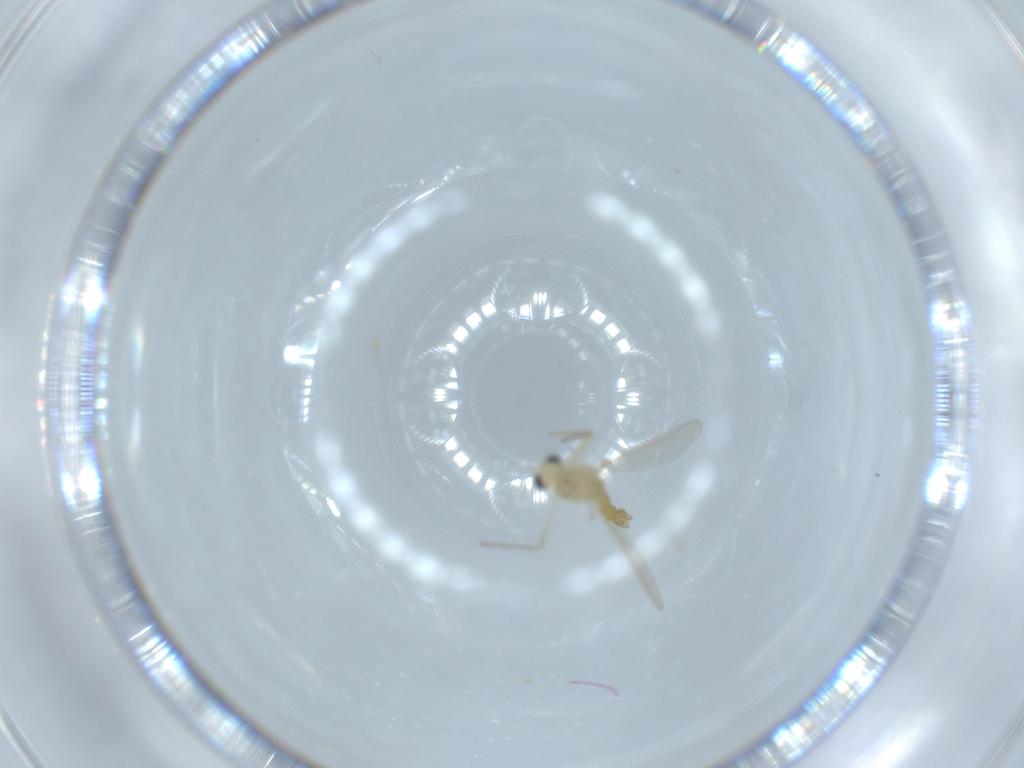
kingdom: Animalia
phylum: Arthropoda
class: Insecta
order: Diptera
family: Chironomidae
